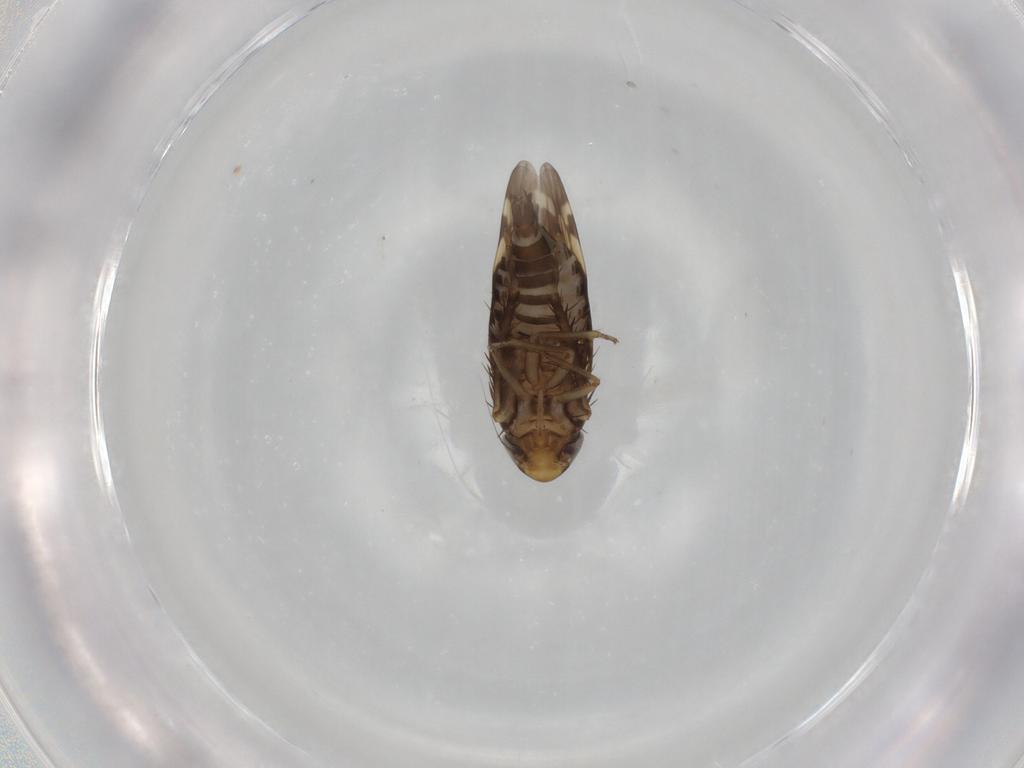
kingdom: Animalia
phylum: Arthropoda
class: Insecta
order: Hemiptera
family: Cicadellidae
